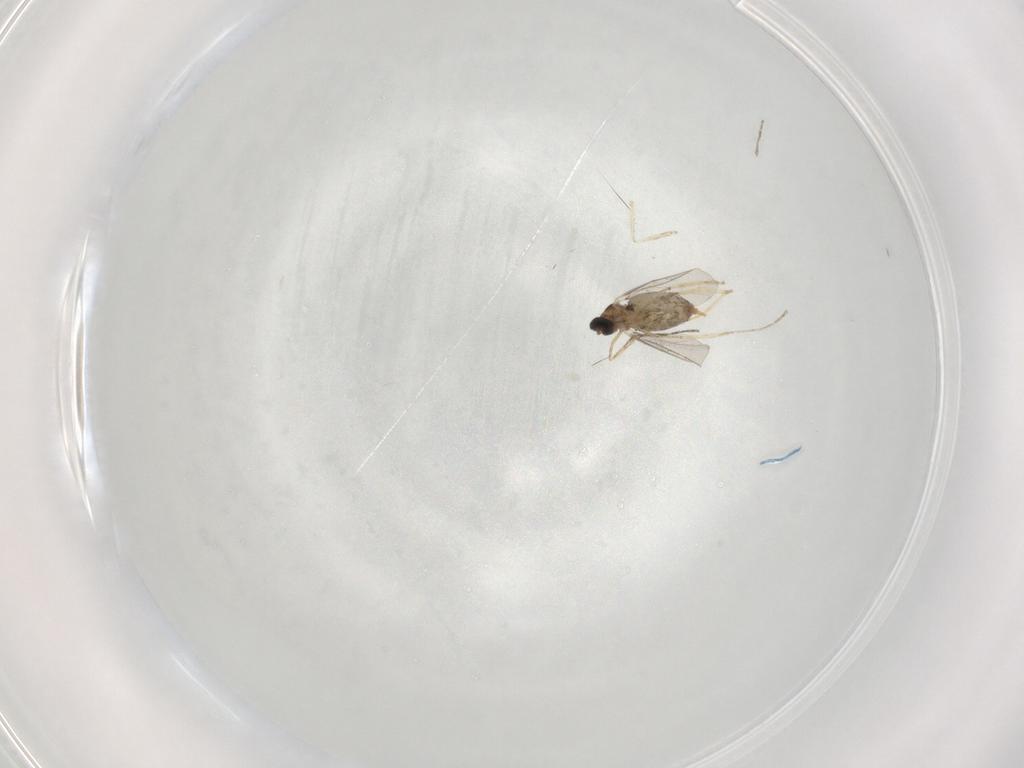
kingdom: Animalia
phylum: Arthropoda
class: Insecta
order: Diptera
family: Cecidomyiidae
